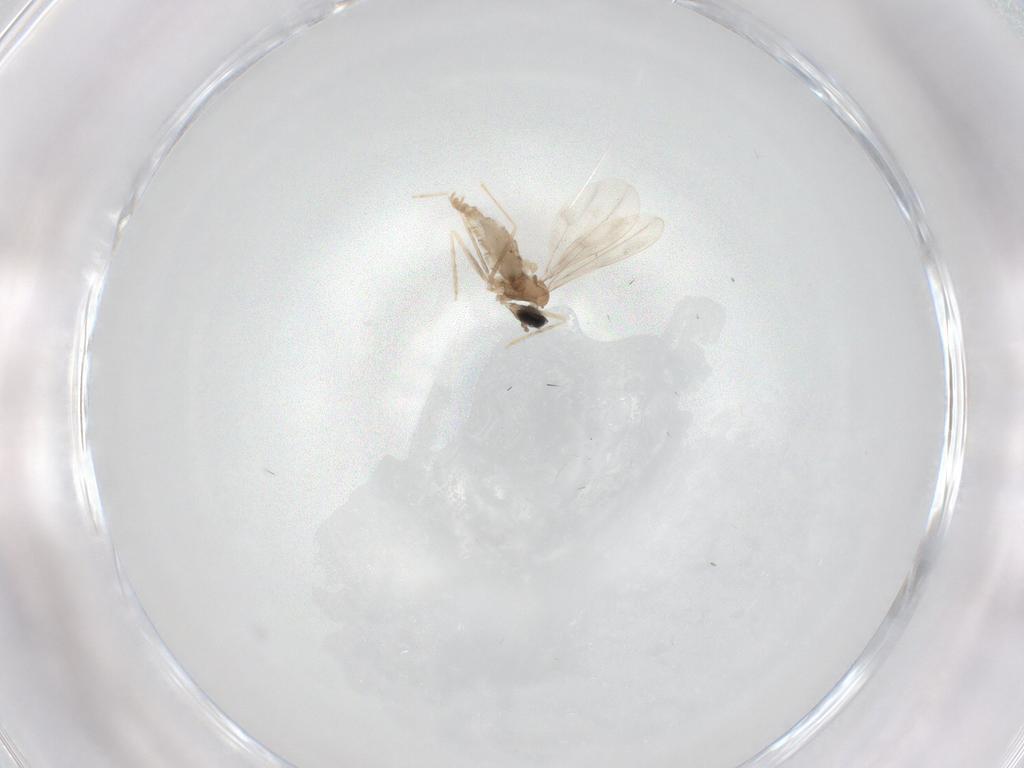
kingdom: Animalia
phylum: Arthropoda
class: Insecta
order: Diptera
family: Cecidomyiidae
